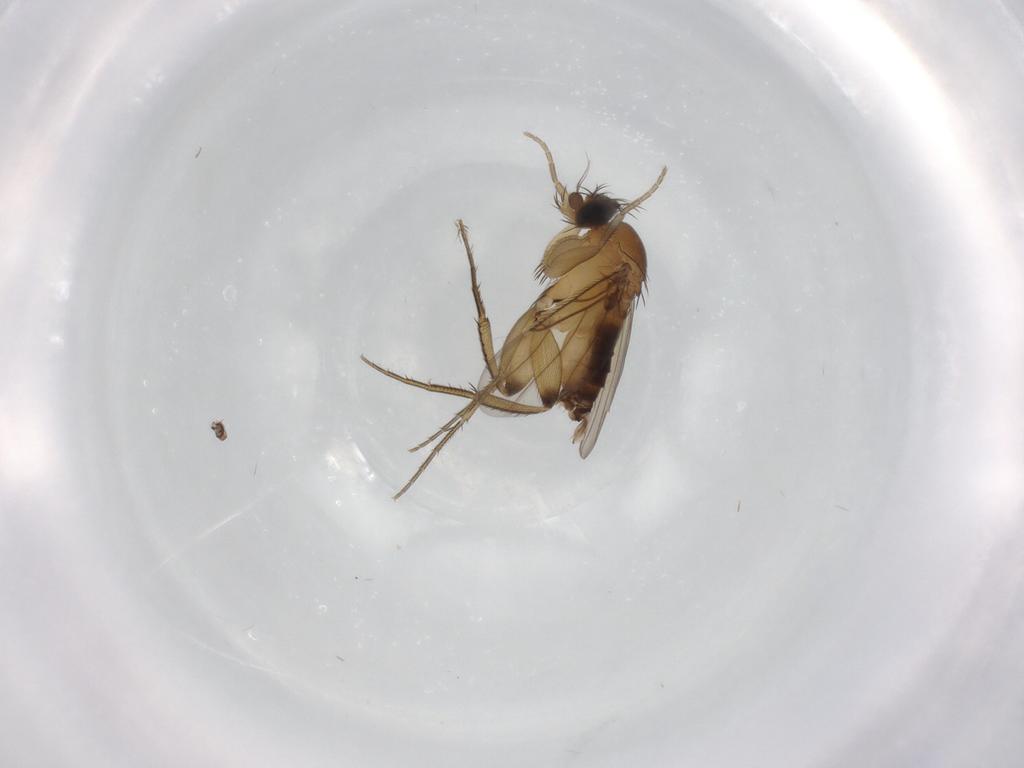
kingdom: Animalia
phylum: Arthropoda
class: Insecta
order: Diptera
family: Phoridae
